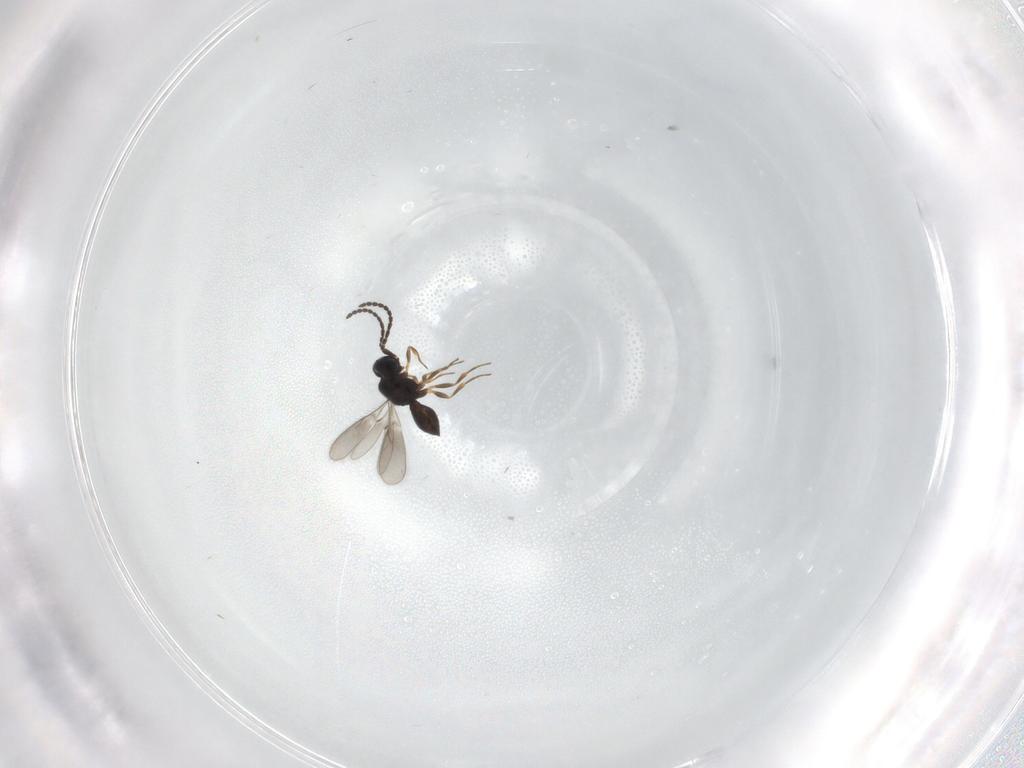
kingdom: Animalia
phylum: Arthropoda
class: Insecta
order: Hymenoptera
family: Scelionidae
